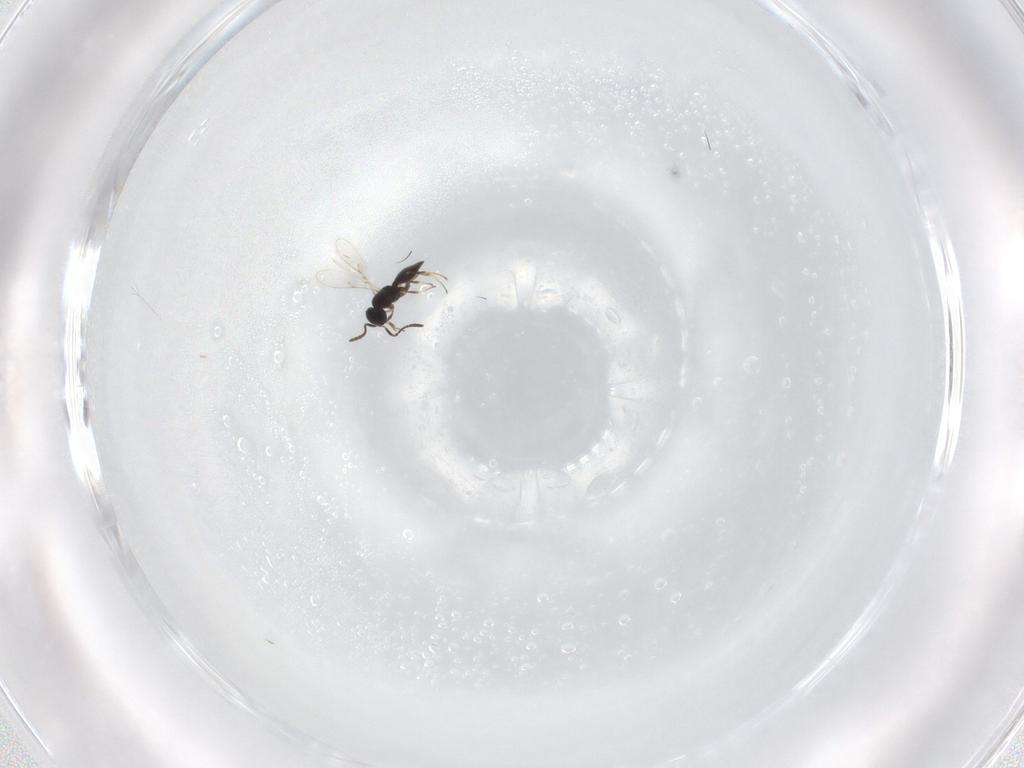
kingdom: Animalia
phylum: Arthropoda
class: Insecta
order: Hymenoptera
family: Scelionidae
